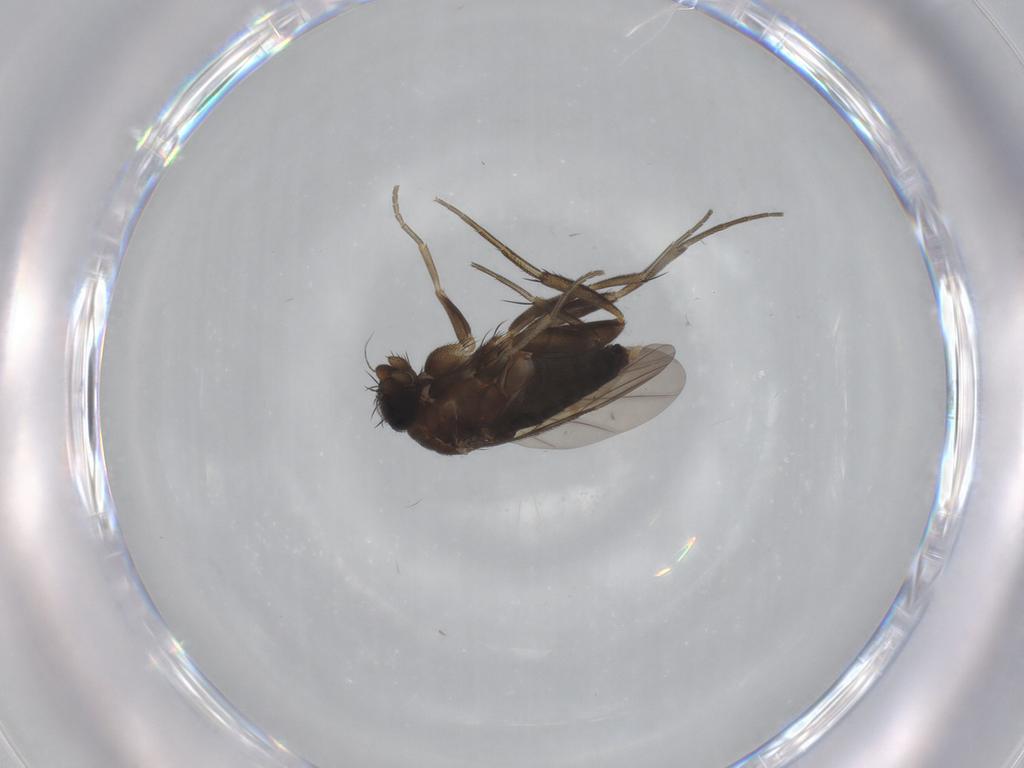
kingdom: Animalia
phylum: Arthropoda
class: Insecta
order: Diptera
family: Phoridae
